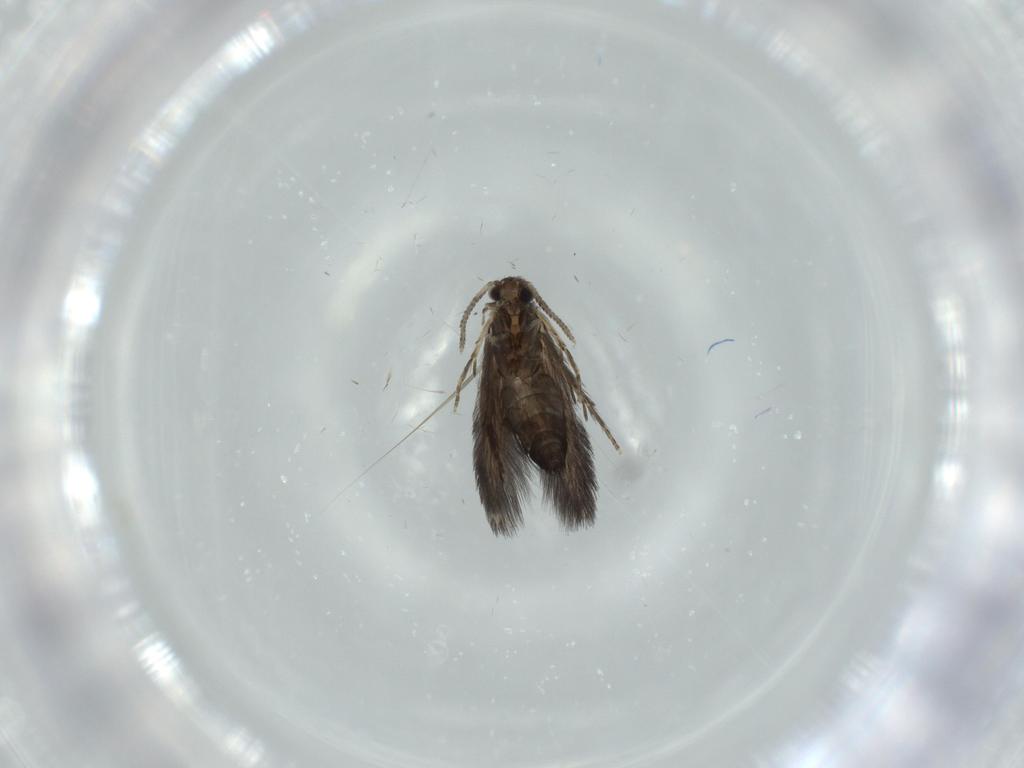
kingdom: Animalia
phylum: Arthropoda
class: Insecta
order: Trichoptera
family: Hydroptilidae
